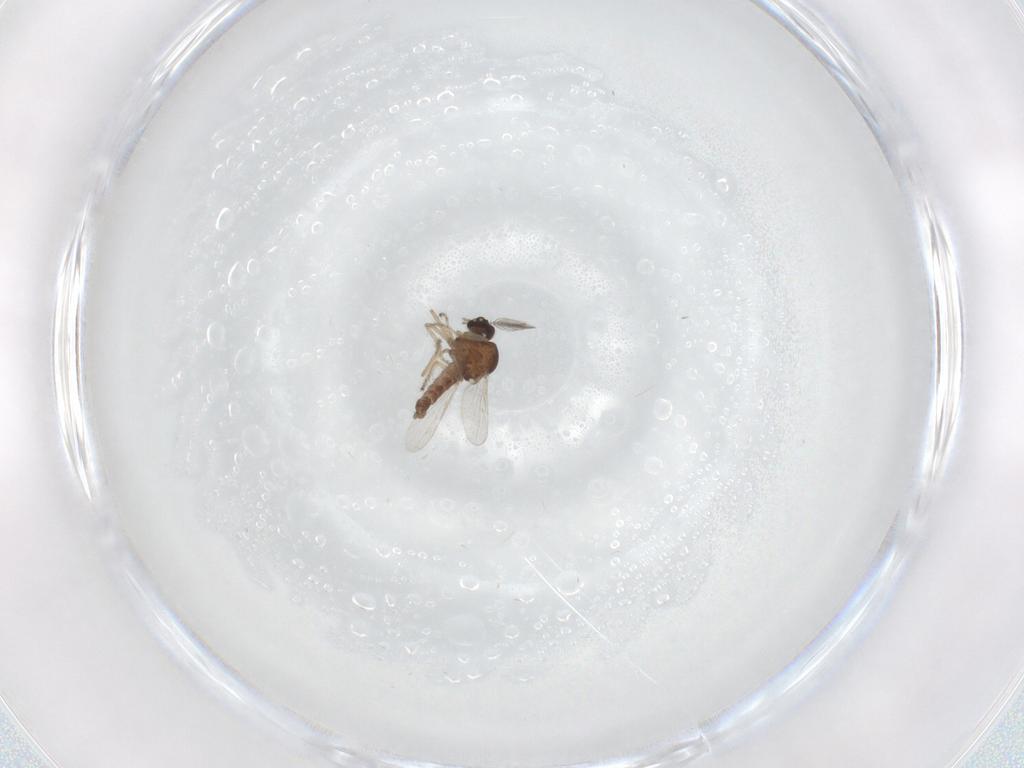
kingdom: Animalia
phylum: Arthropoda
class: Insecta
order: Diptera
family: Ceratopogonidae
